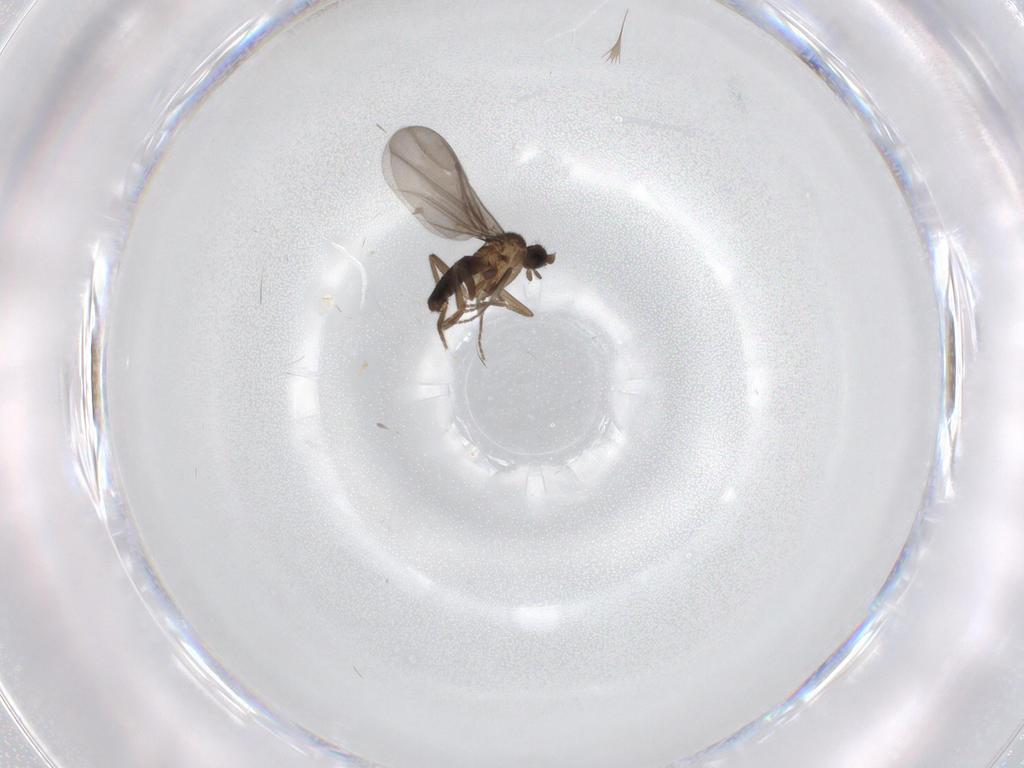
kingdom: Animalia
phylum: Arthropoda
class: Insecta
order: Diptera
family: Phoridae
